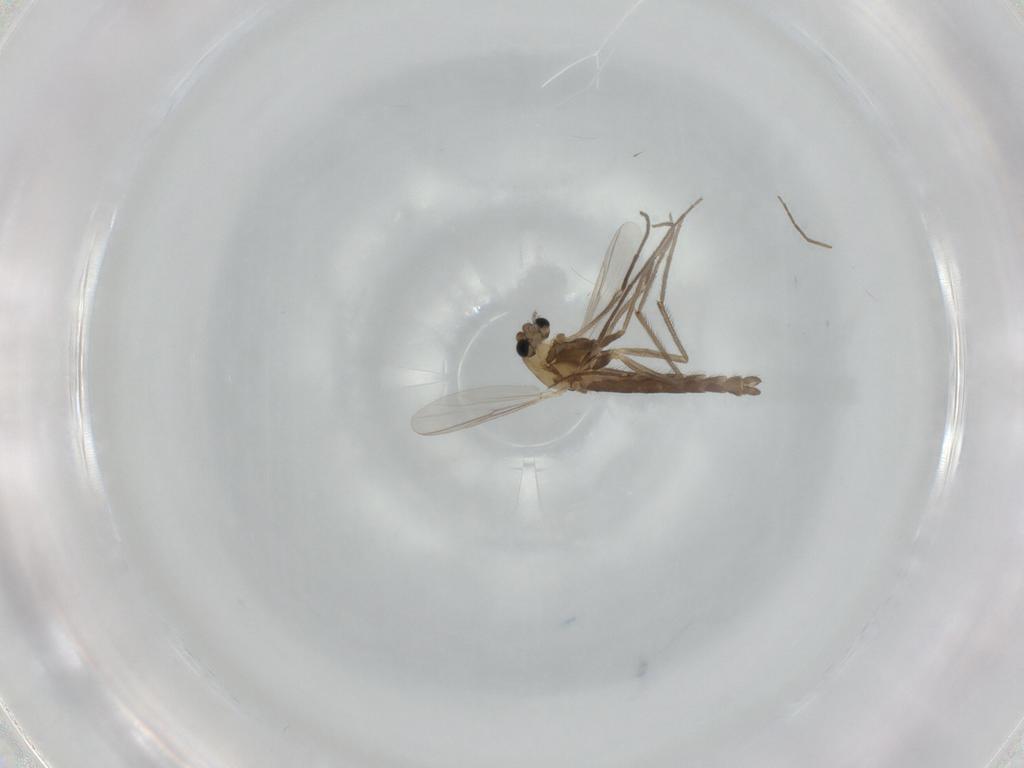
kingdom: Animalia
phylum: Arthropoda
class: Insecta
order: Diptera
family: Chironomidae
